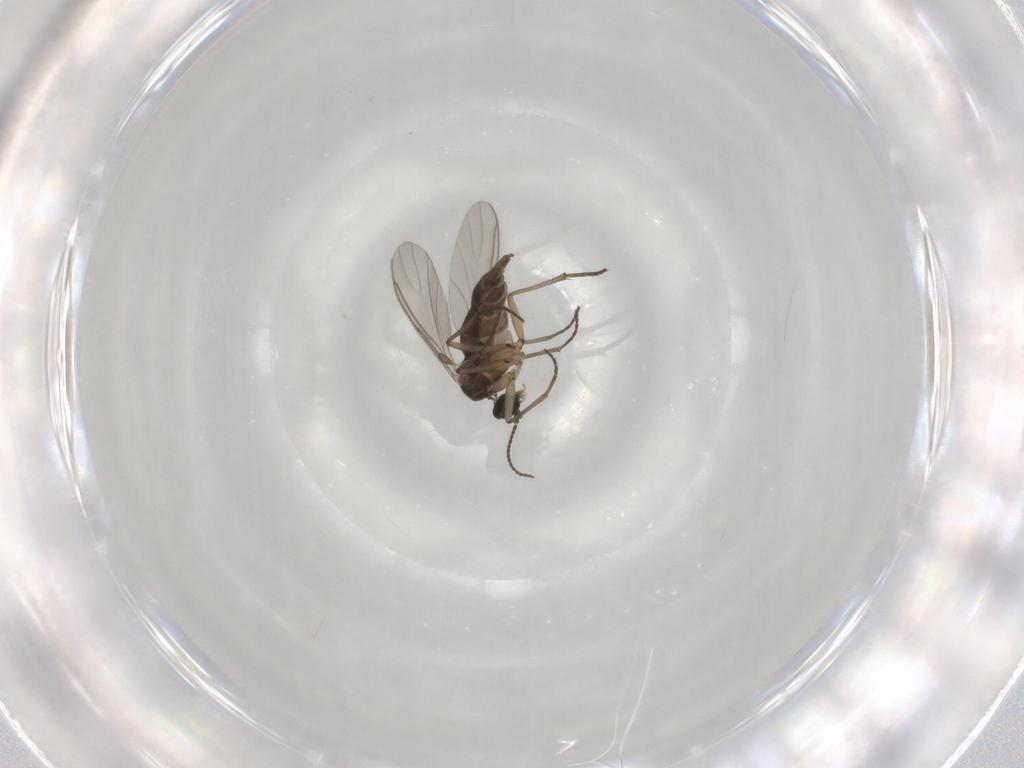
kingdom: Animalia
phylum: Arthropoda
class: Insecta
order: Diptera
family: Sciaridae
